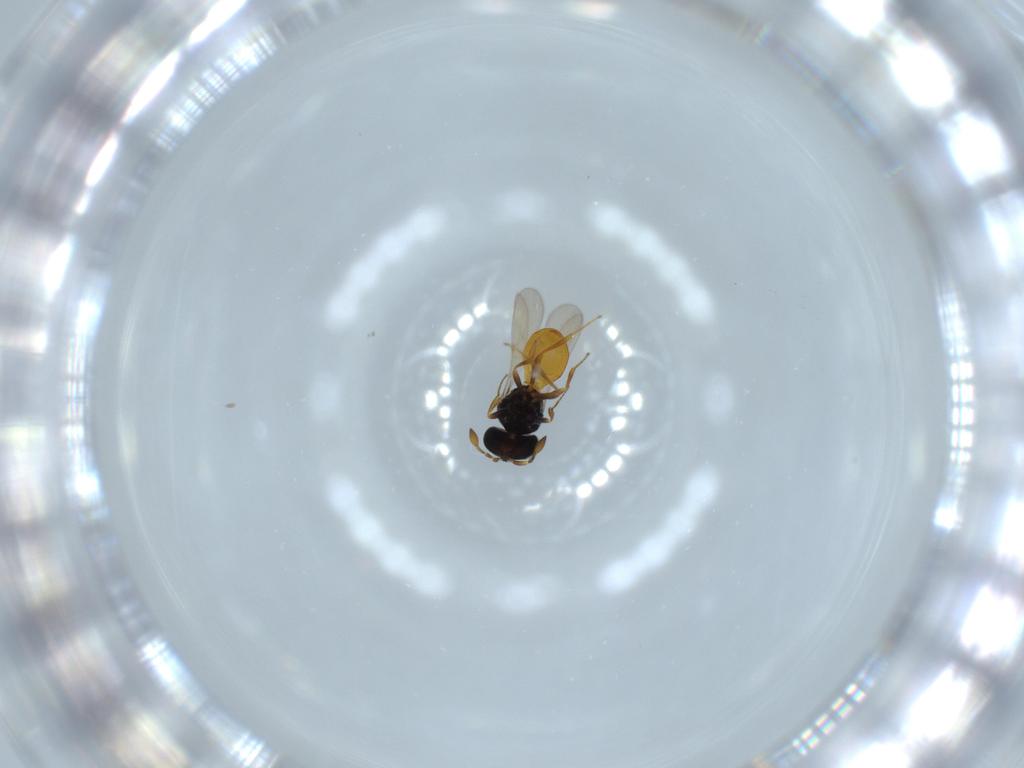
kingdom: Animalia
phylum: Arthropoda
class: Insecta
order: Hymenoptera
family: Scelionidae
